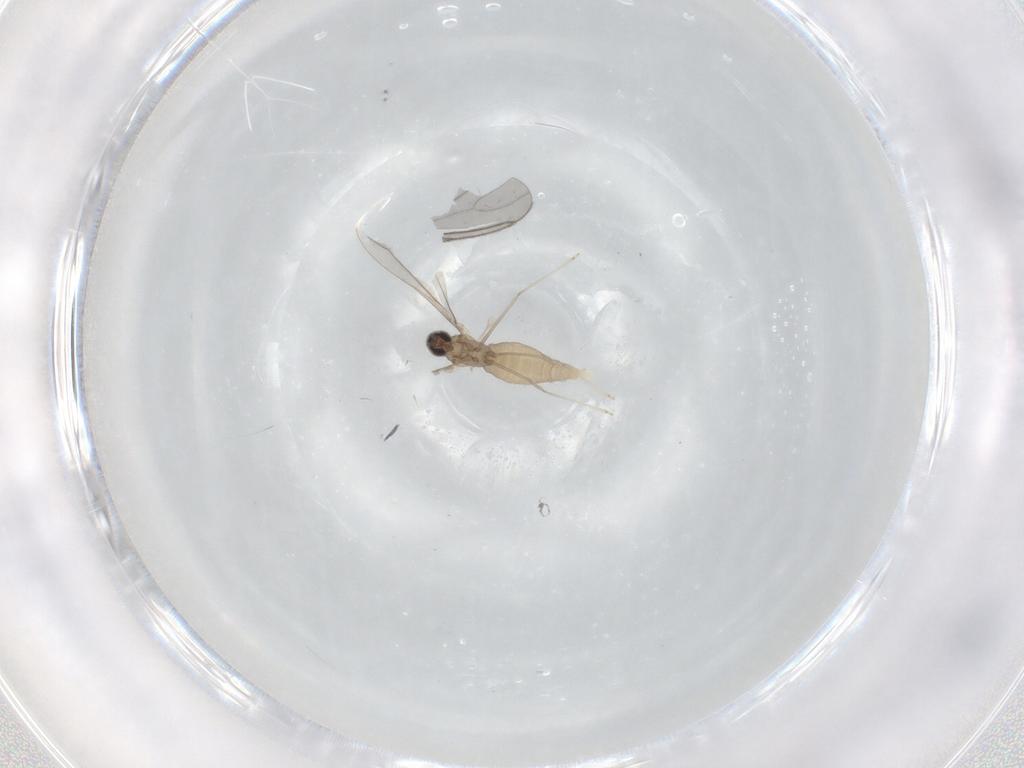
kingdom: Animalia
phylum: Arthropoda
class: Insecta
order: Diptera
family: Cecidomyiidae
